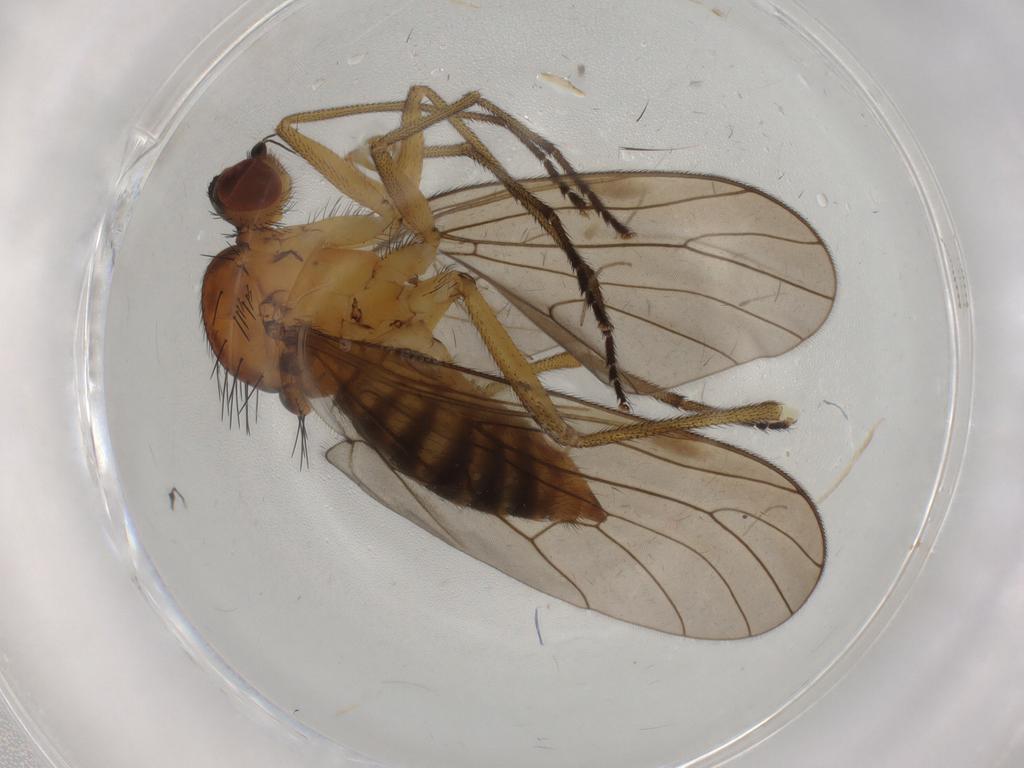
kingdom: Animalia
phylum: Arthropoda
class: Insecta
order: Diptera
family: Brachystomatidae
